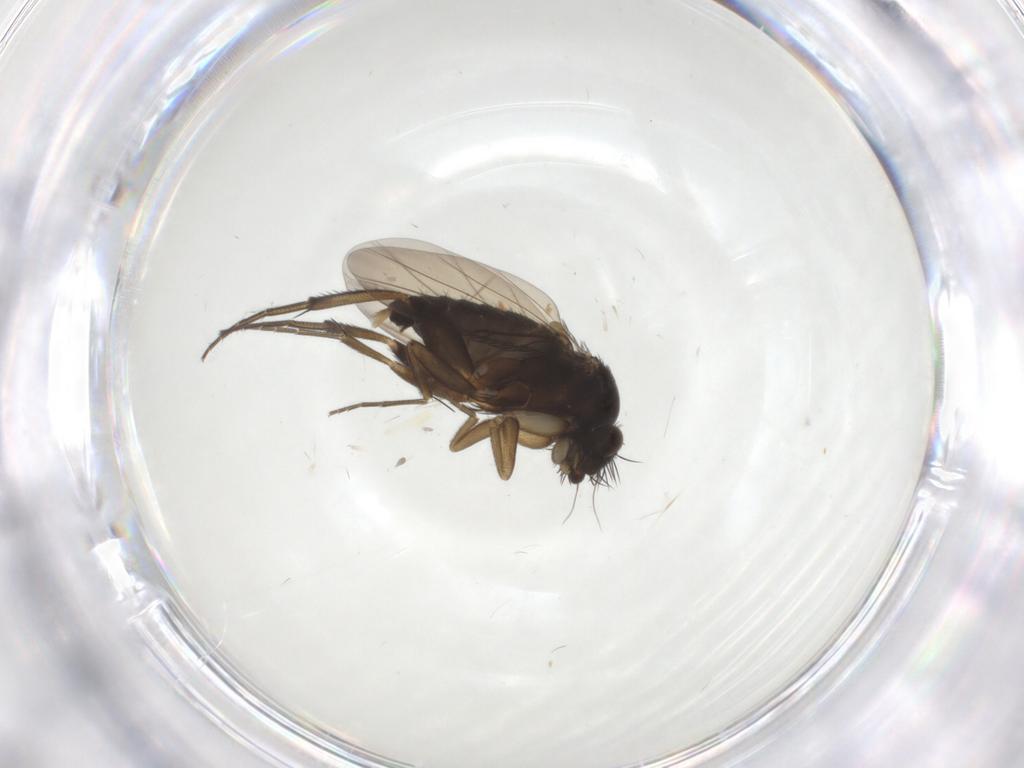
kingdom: Animalia
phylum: Arthropoda
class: Insecta
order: Diptera
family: Phoridae
